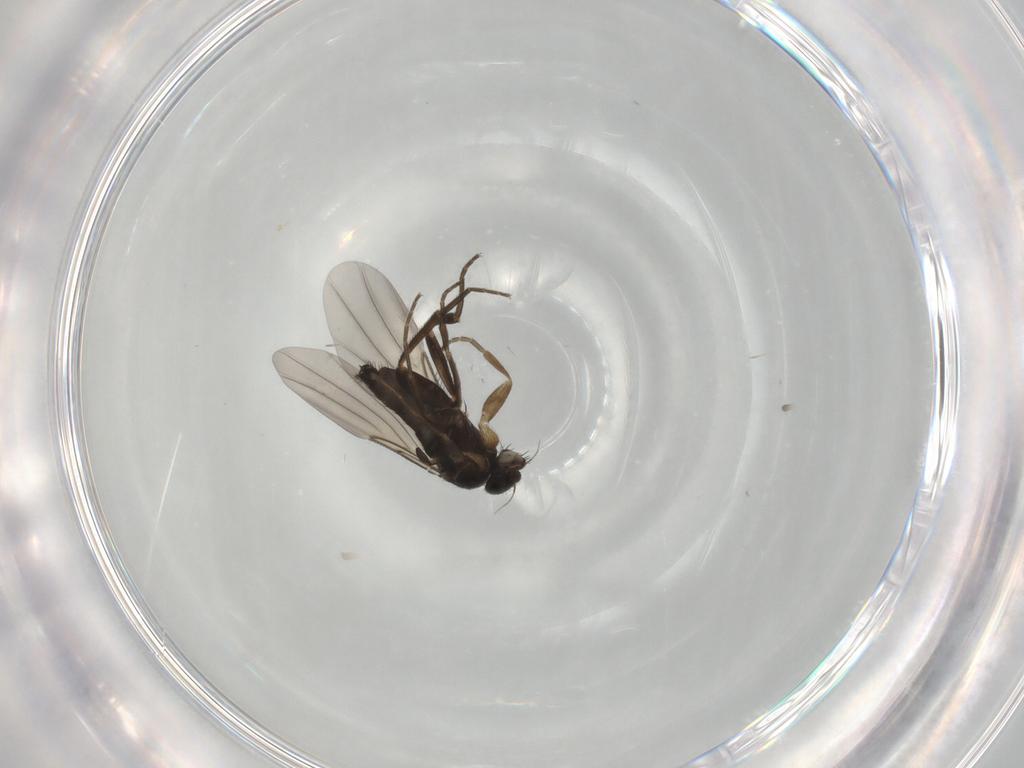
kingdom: Animalia
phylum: Arthropoda
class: Insecta
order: Diptera
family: Phoridae
